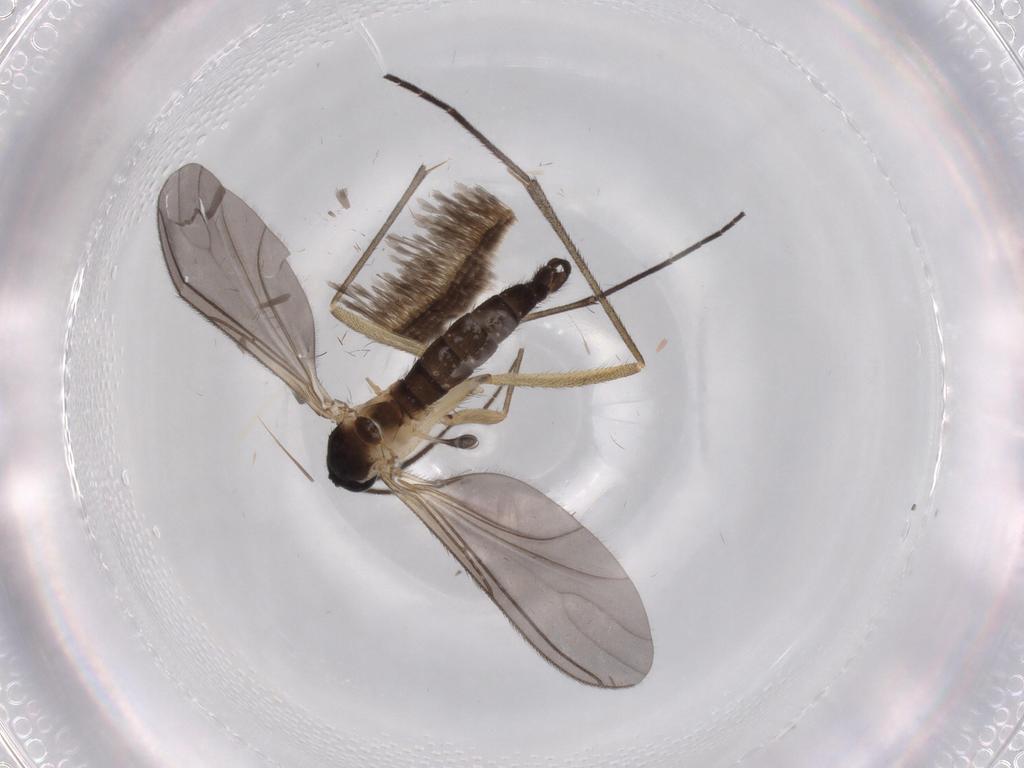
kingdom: Animalia
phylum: Arthropoda
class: Insecta
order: Diptera
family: Sciaridae
